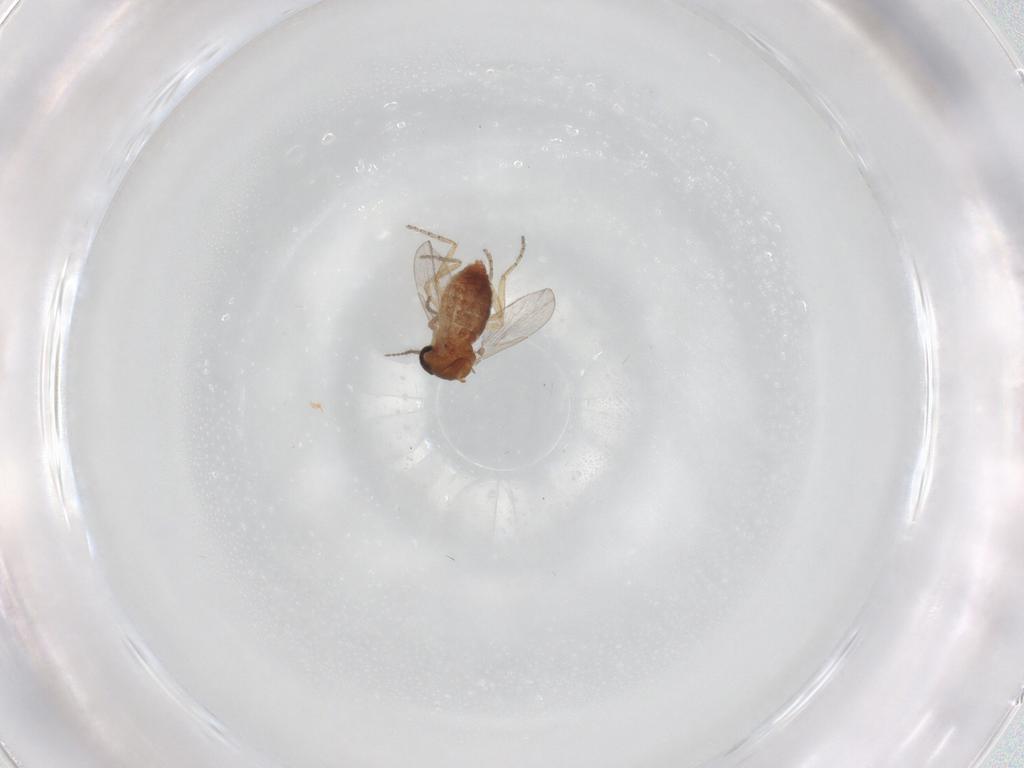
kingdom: Animalia
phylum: Arthropoda
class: Insecta
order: Diptera
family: Ceratopogonidae
